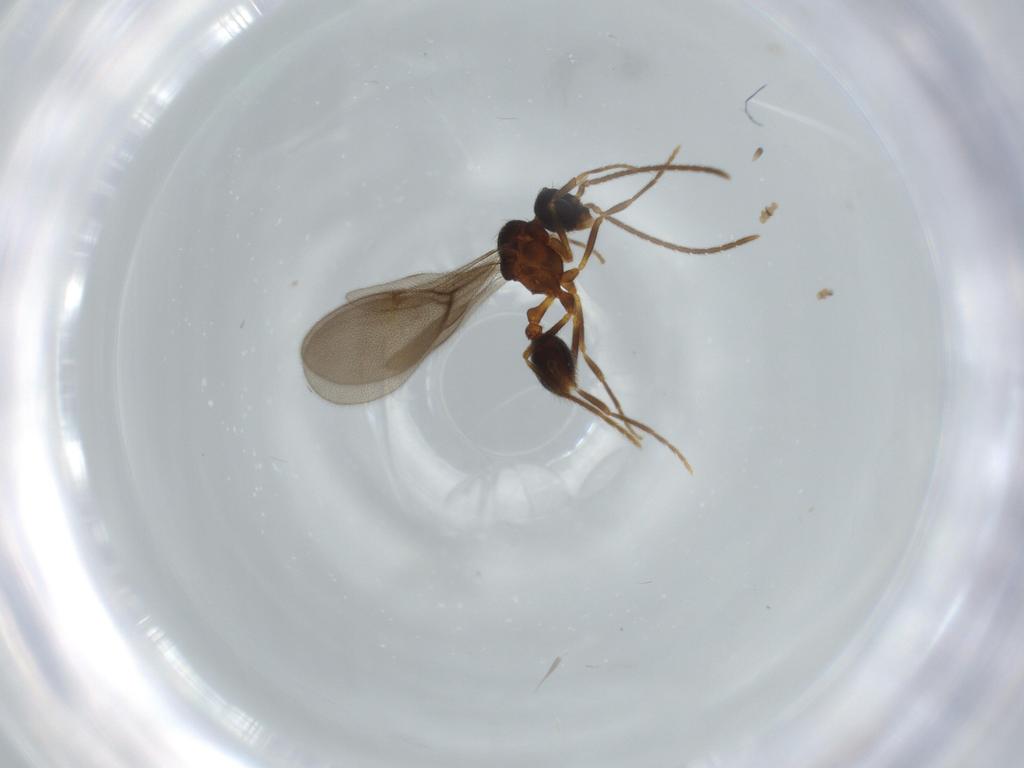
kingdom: Animalia
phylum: Arthropoda
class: Insecta
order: Hymenoptera
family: Formicidae
